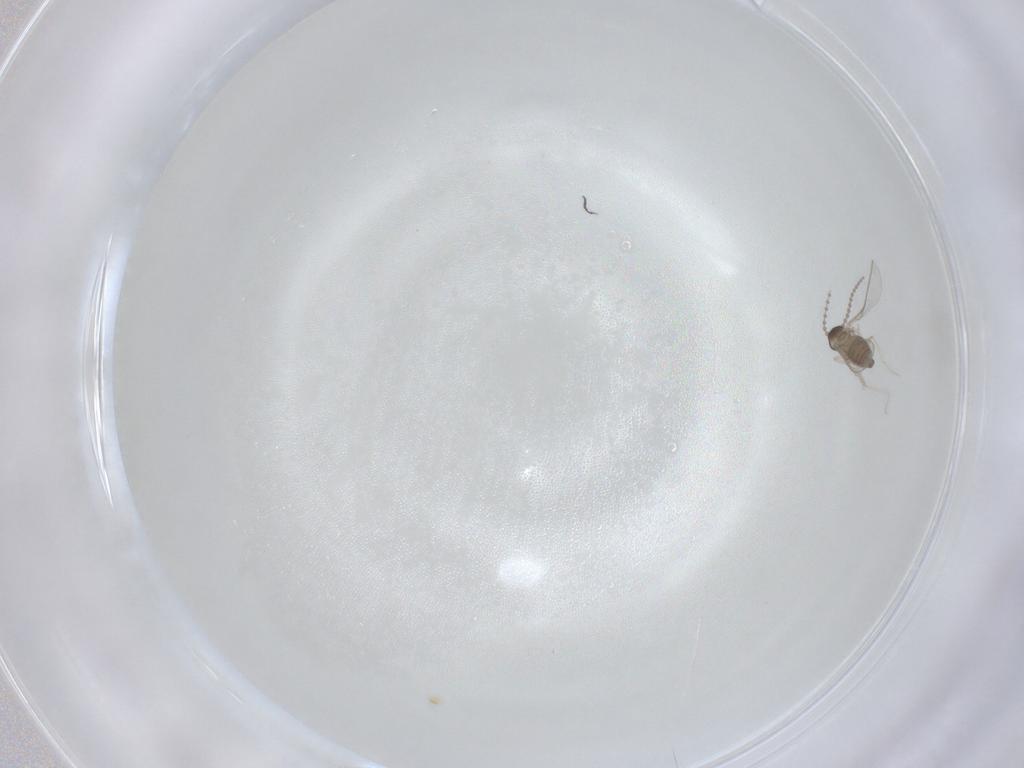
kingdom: Animalia
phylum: Arthropoda
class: Insecta
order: Diptera
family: Cecidomyiidae
